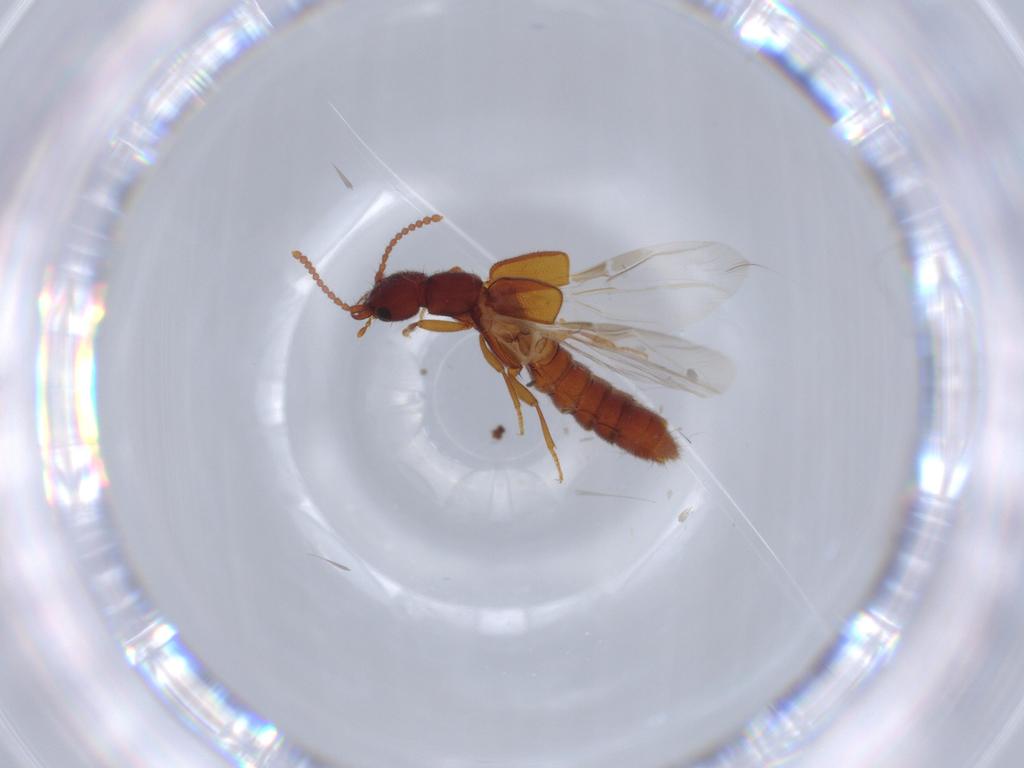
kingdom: Animalia
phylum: Arthropoda
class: Insecta
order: Coleoptera
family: Staphylinidae
